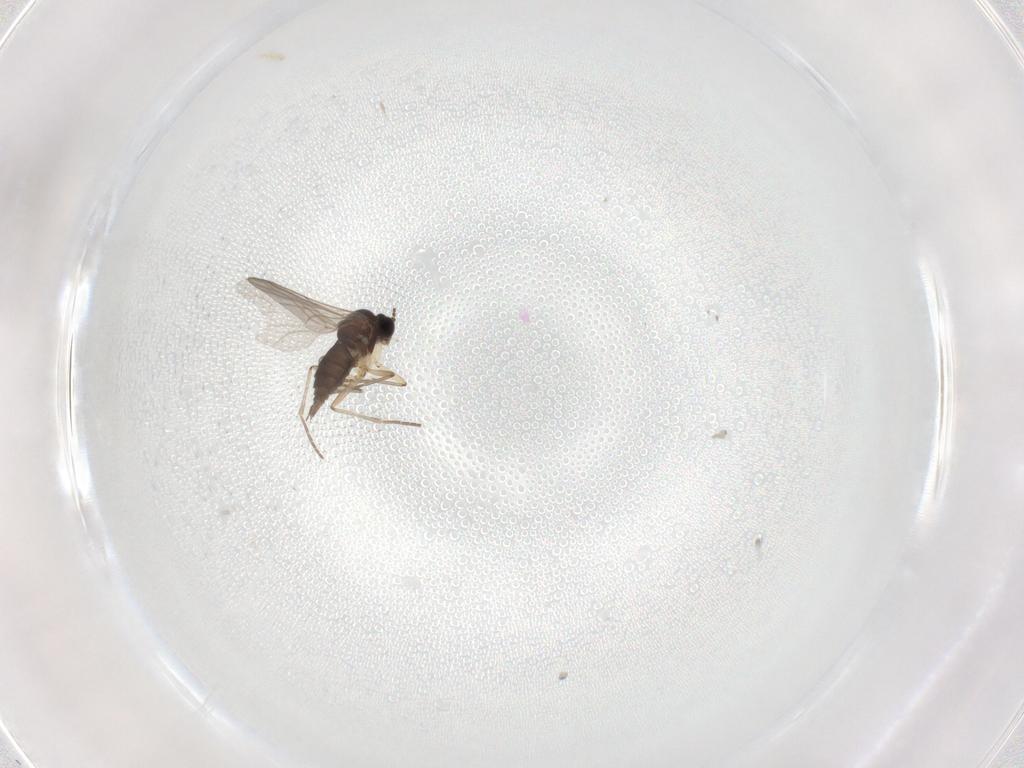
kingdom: Animalia
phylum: Arthropoda
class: Insecta
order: Diptera
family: Sciaridae
